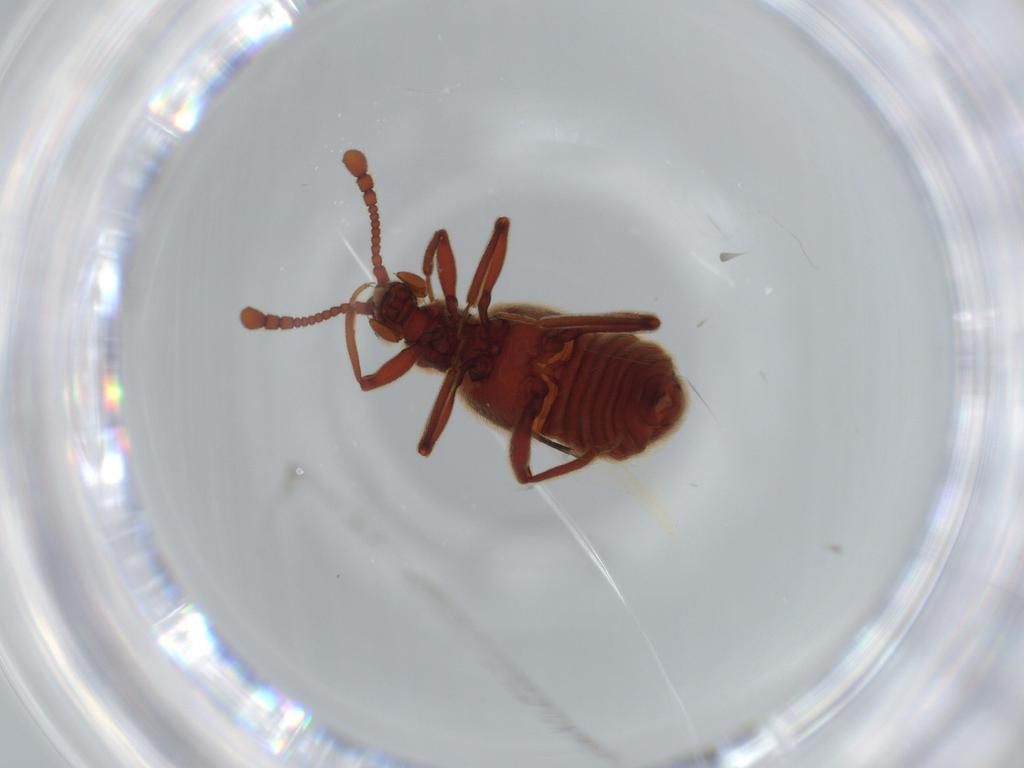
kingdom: Animalia
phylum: Arthropoda
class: Insecta
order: Coleoptera
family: Elateridae
